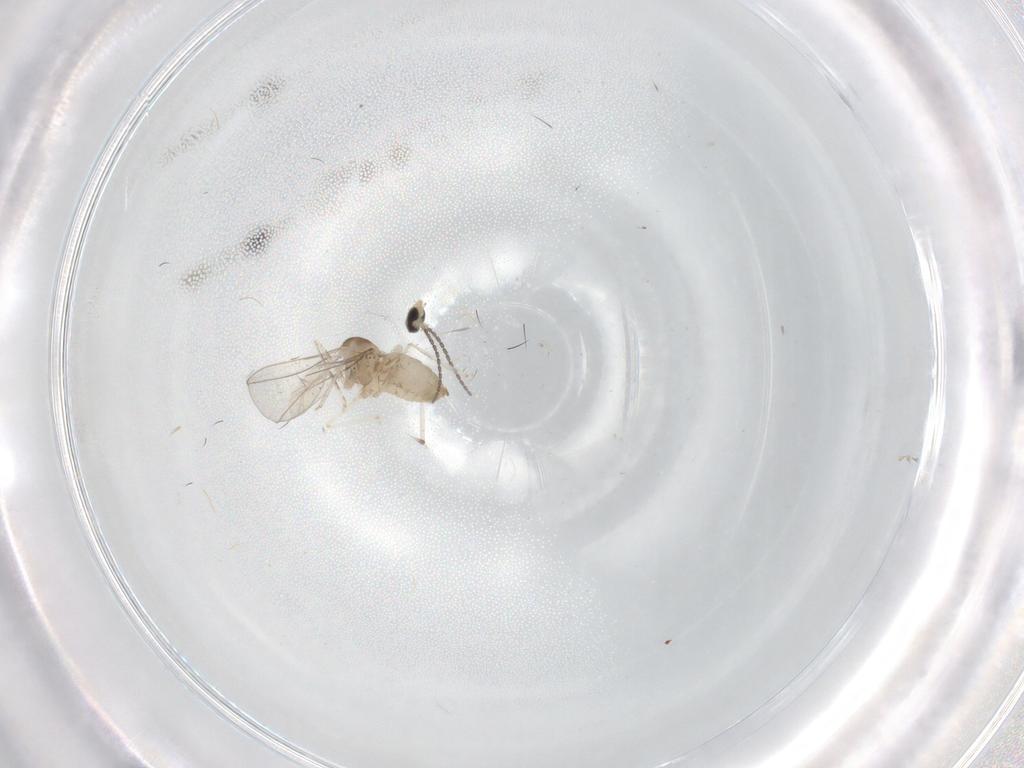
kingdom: Animalia
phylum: Arthropoda
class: Insecta
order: Diptera
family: Cecidomyiidae
